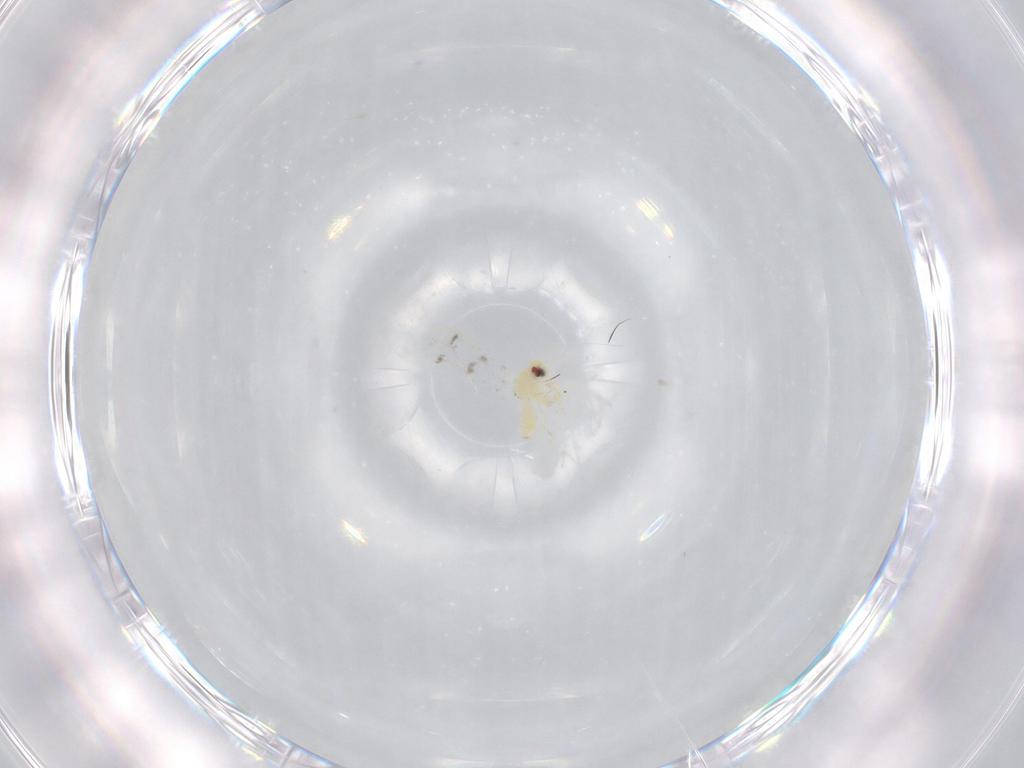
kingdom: Animalia
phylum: Arthropoda
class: Insecta
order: Hemiptera
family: Aleyrodidae
